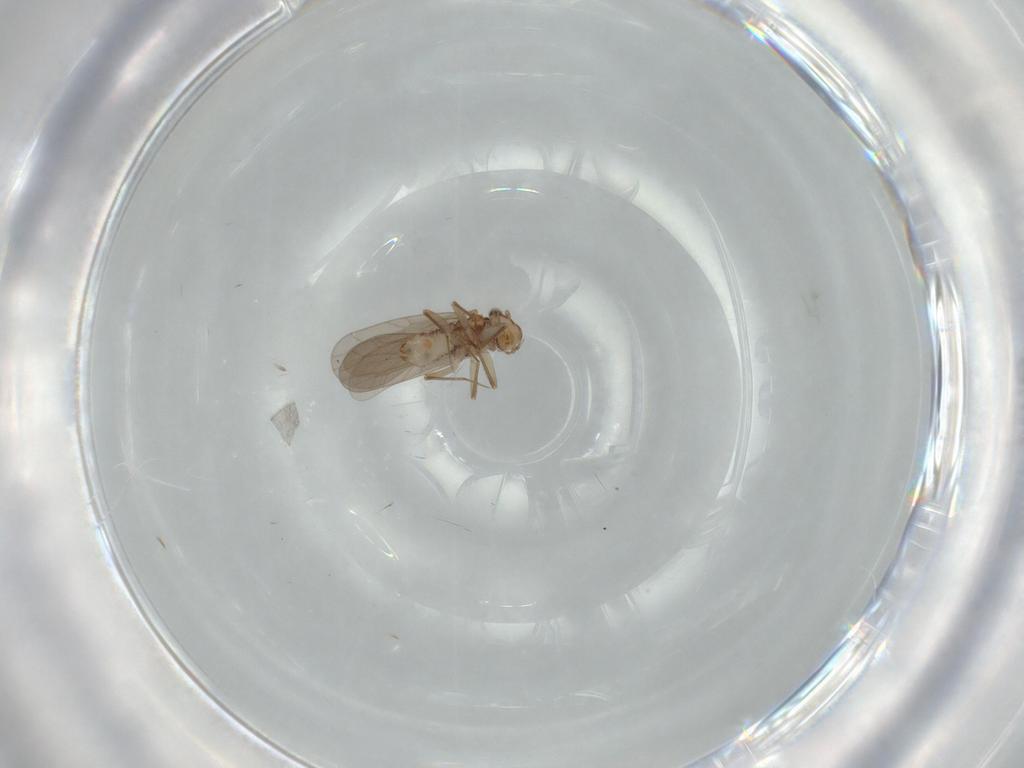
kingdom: Animalia
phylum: Arthropoda
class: Insecta
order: Psocodea
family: Lepidopsocidae
